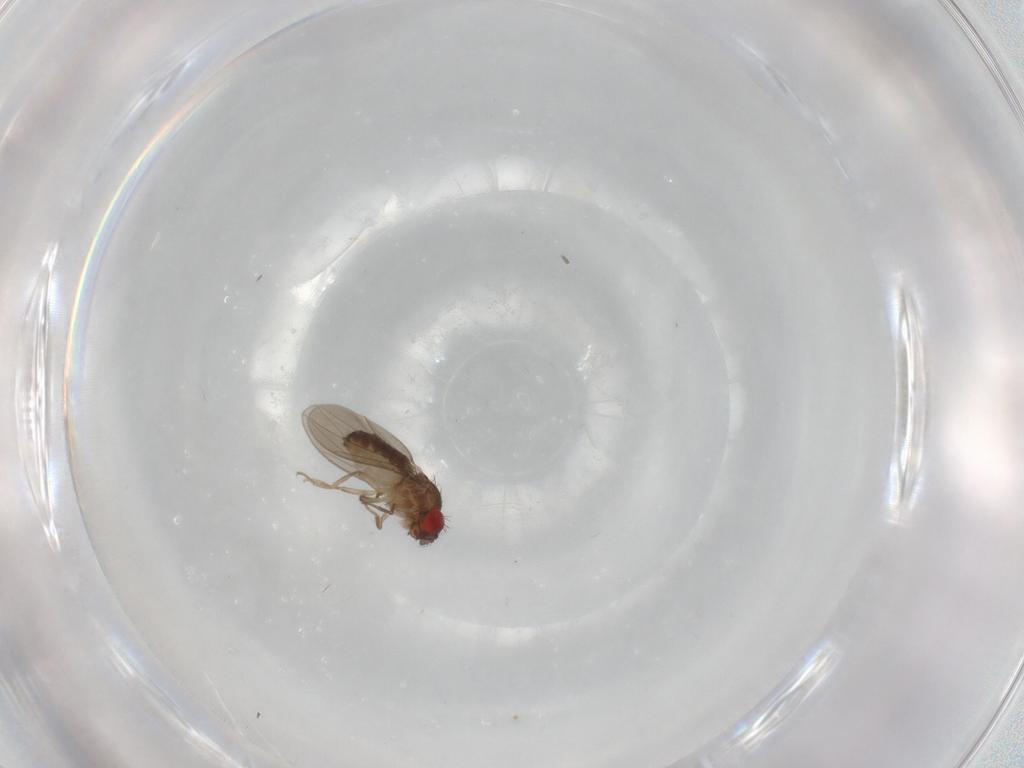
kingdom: Animalia
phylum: Arthropoda
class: Insecta
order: Diptera
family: Drosophilidae
